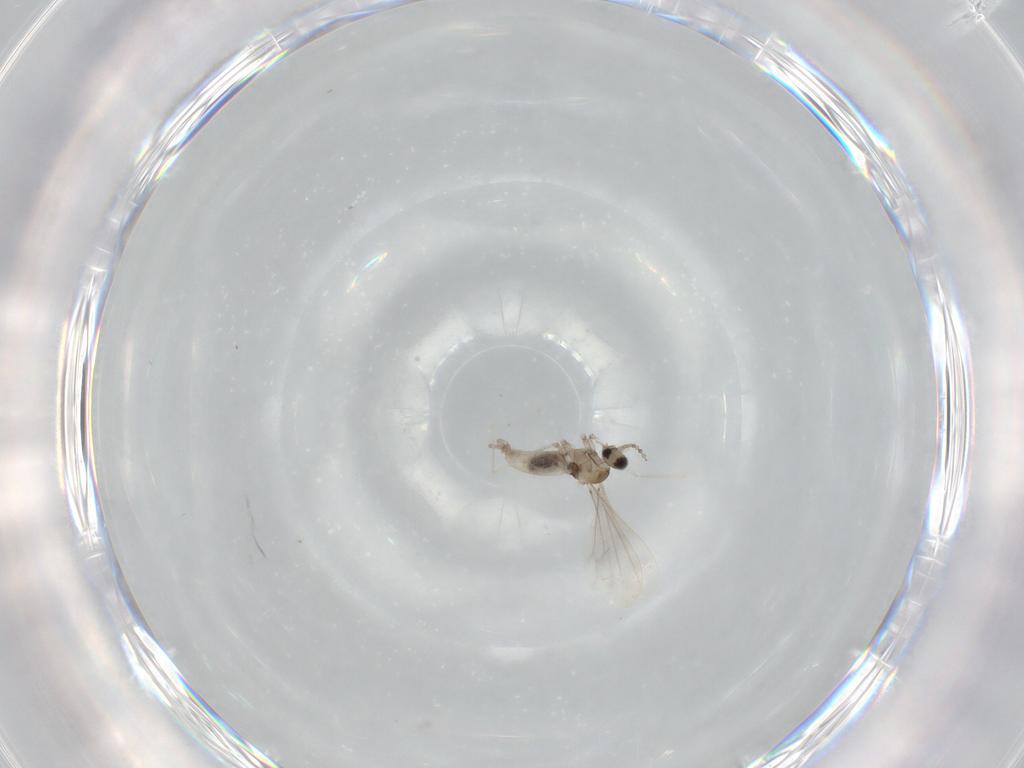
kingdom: Animalia
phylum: Arthropoda
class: Insecta
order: Diptera
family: Cecidomyiidae
